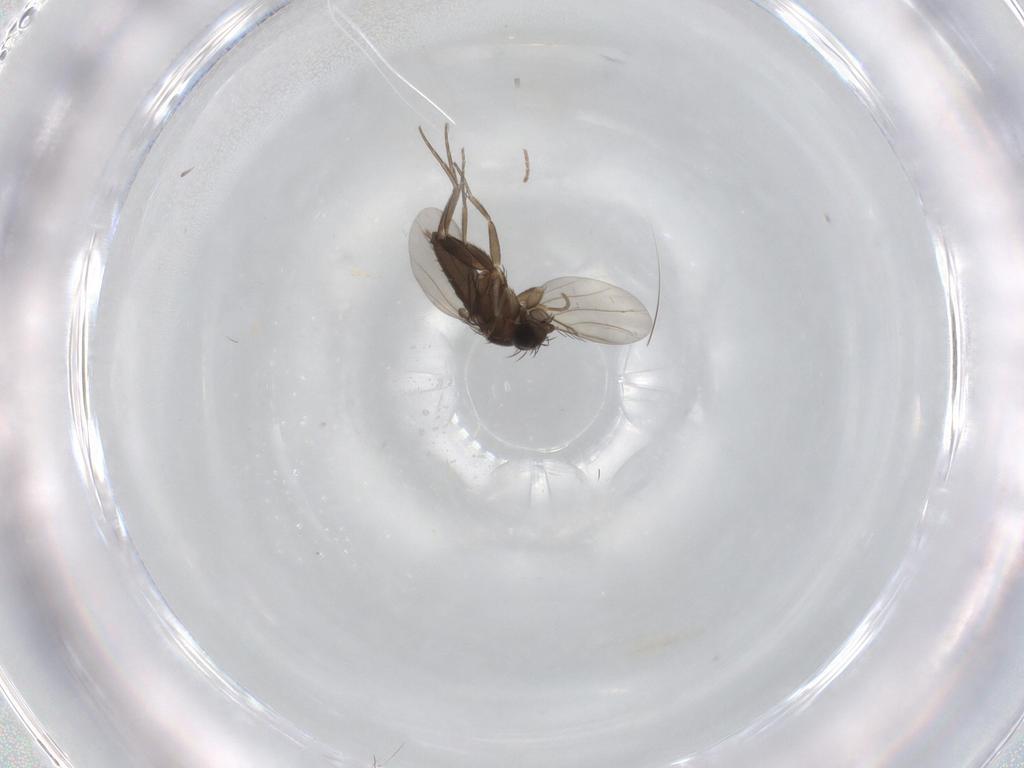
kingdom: Animalia
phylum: Arthropoda
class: Insecta
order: Diptera
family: Phoridae
